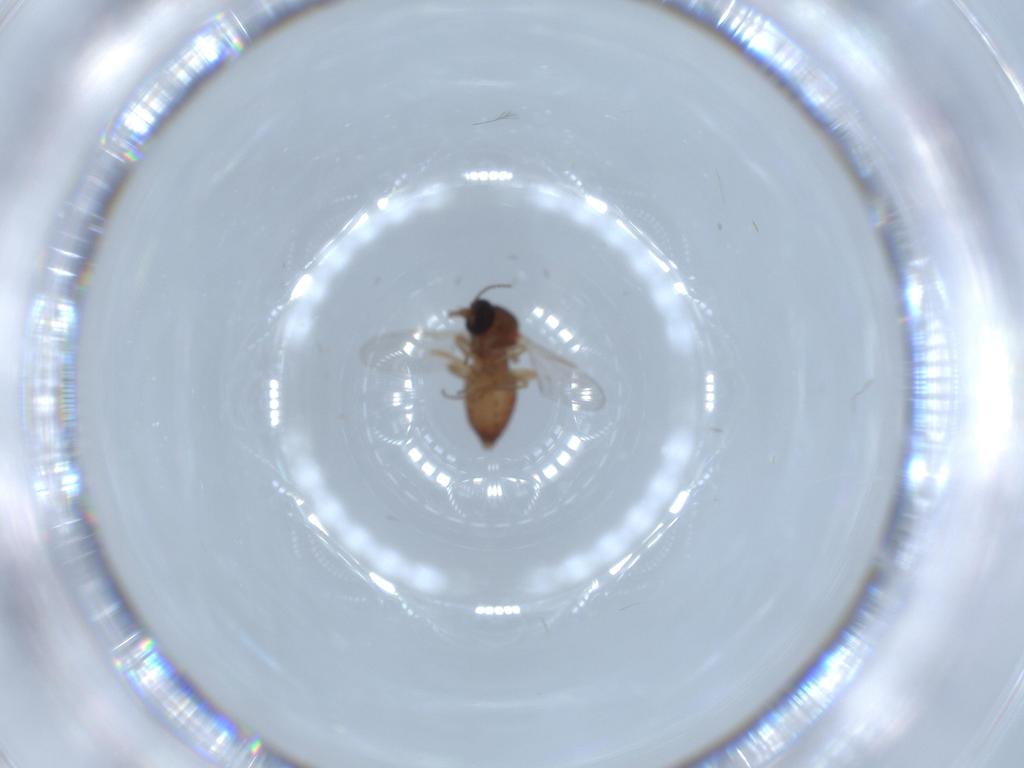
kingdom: Animalia
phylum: Arthropoda
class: Insecta
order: Diptera
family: Ceratopogonidae
